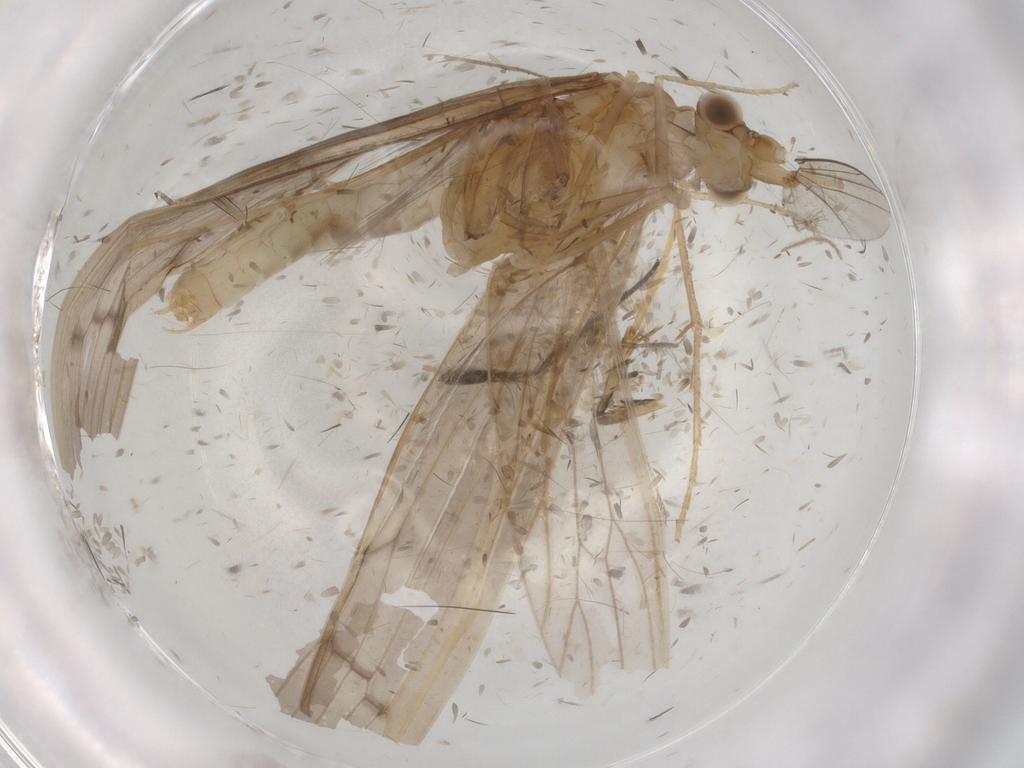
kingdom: Animalia
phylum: Arthropoda
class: Insecta
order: Trichoptera
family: Leptoceridae
